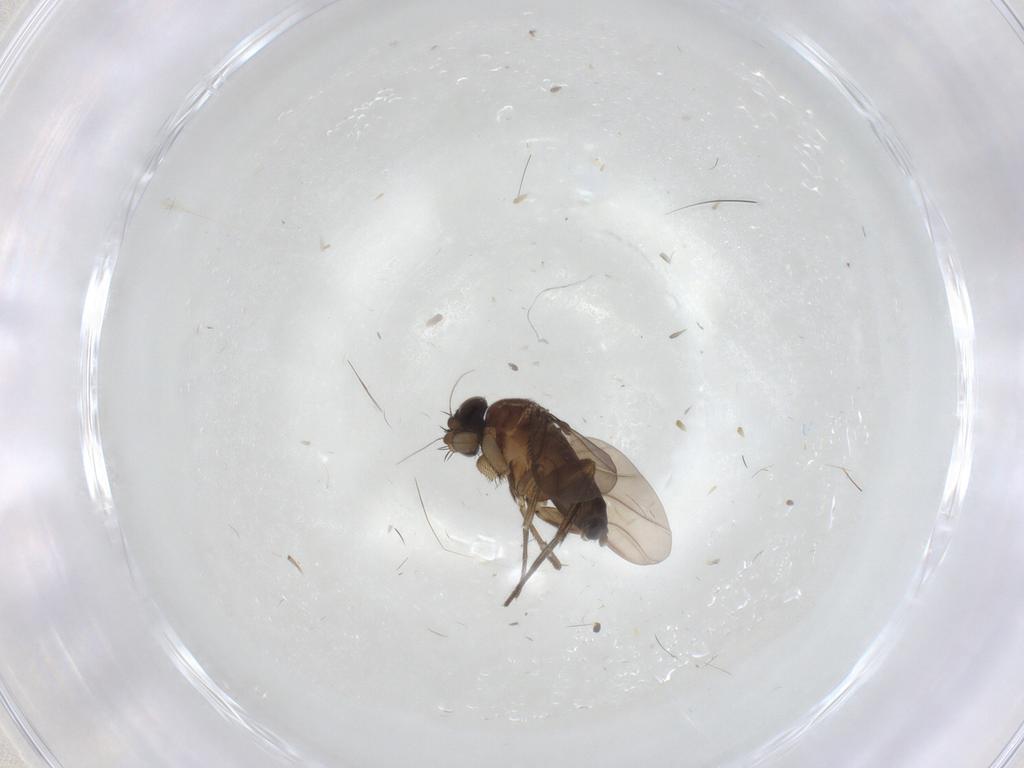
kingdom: Animalia
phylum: Arthropoda
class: Insecta
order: Diptera
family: Phoridae
